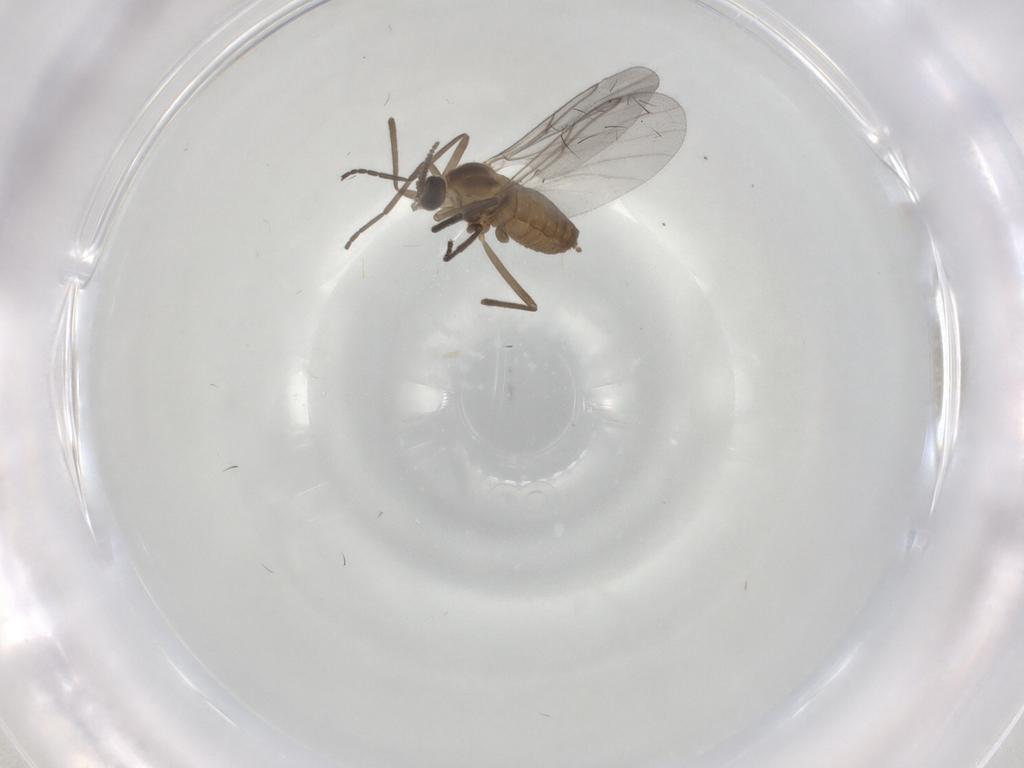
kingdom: Animalia
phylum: Arthropoda
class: Insecta
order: Diptera
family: Cecidomyiidae
